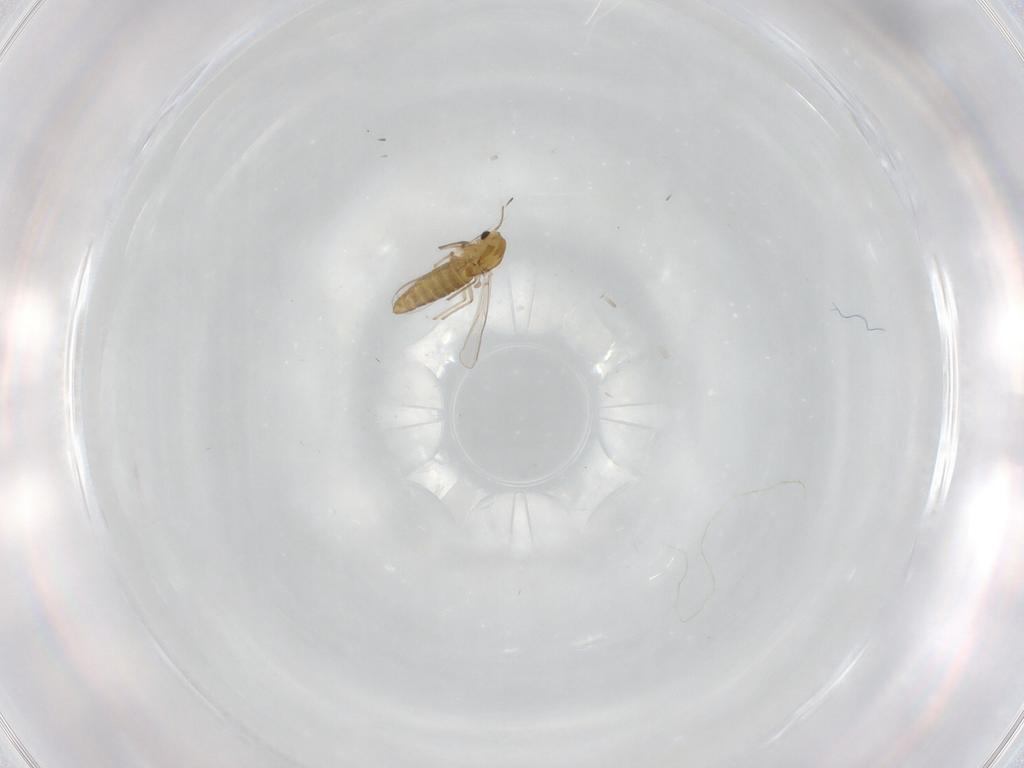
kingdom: Animalia
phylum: Arthropoda
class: Insecta
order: Diptera
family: Chironomidae
